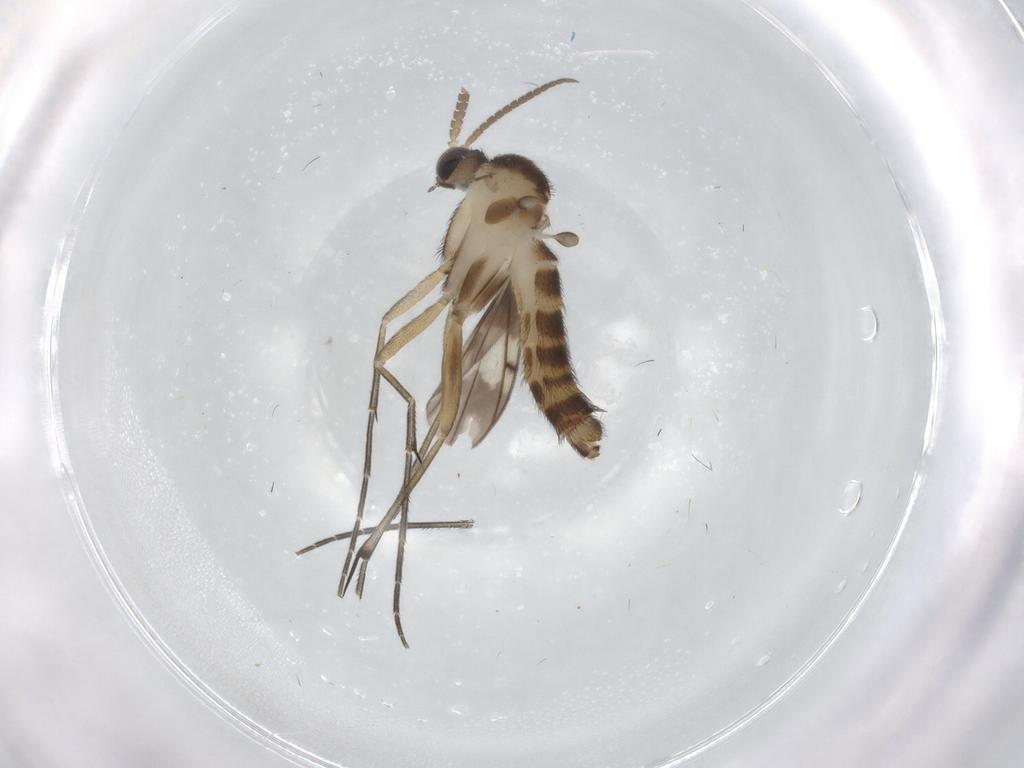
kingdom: Animalia
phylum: Arthropoda
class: Insecta
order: Diptera
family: Keroplatidae
